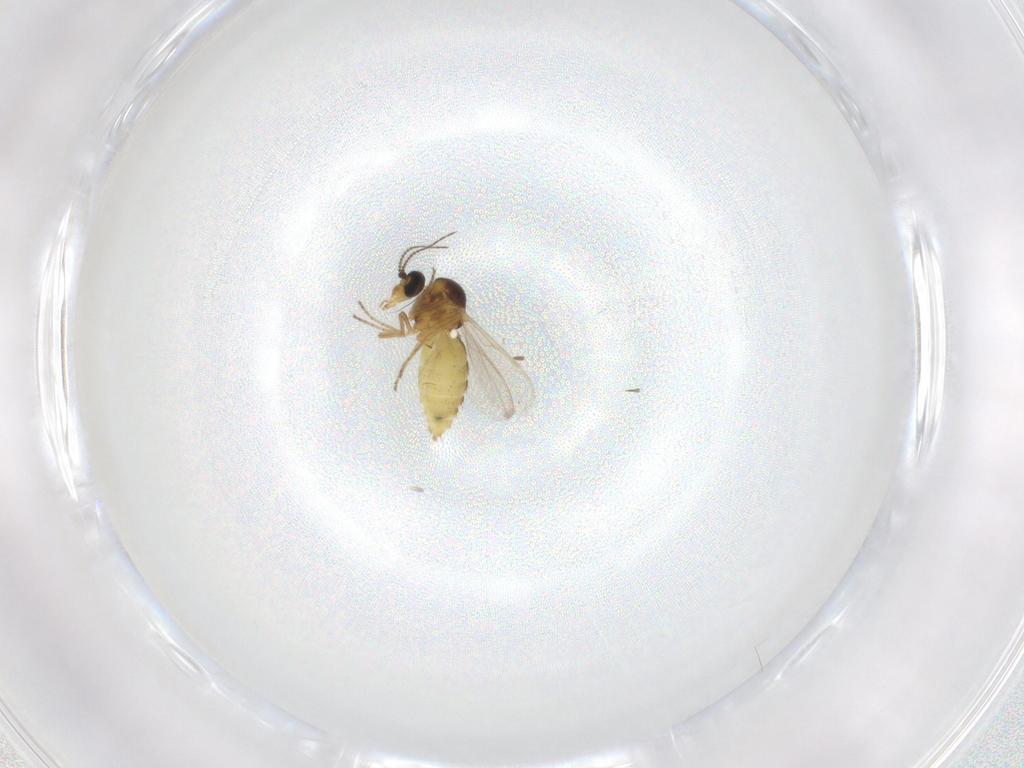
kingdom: Animalia
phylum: Arthropoda
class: Insecta
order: Diptera
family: Ceratopogonidae
